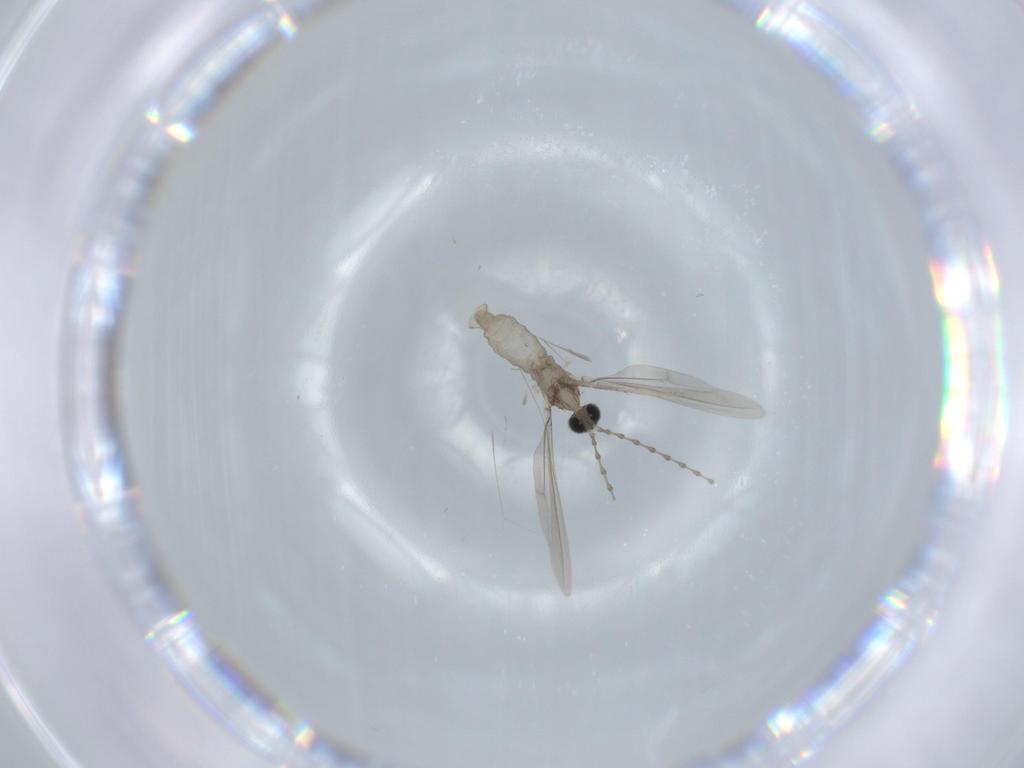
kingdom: Animalia
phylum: Arthropoda
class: Insecta
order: Diptera
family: Cecidomyiidae
